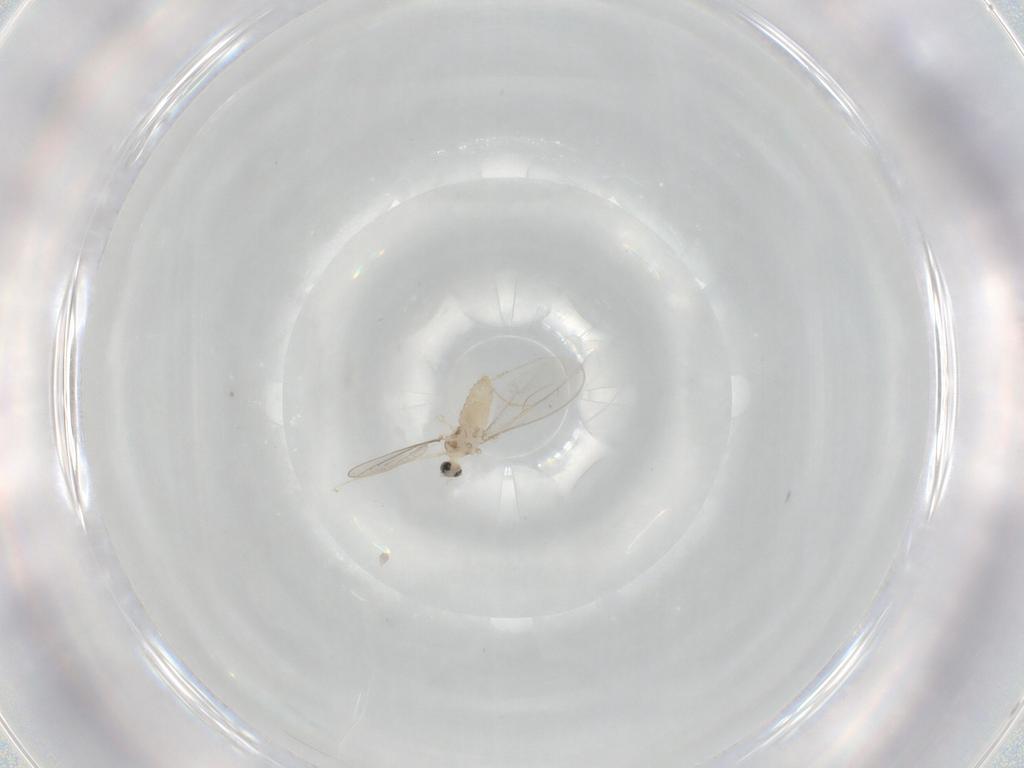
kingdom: Animalia
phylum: Arthropoda
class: Insecta
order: Diptera
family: Cecidomyiidae
